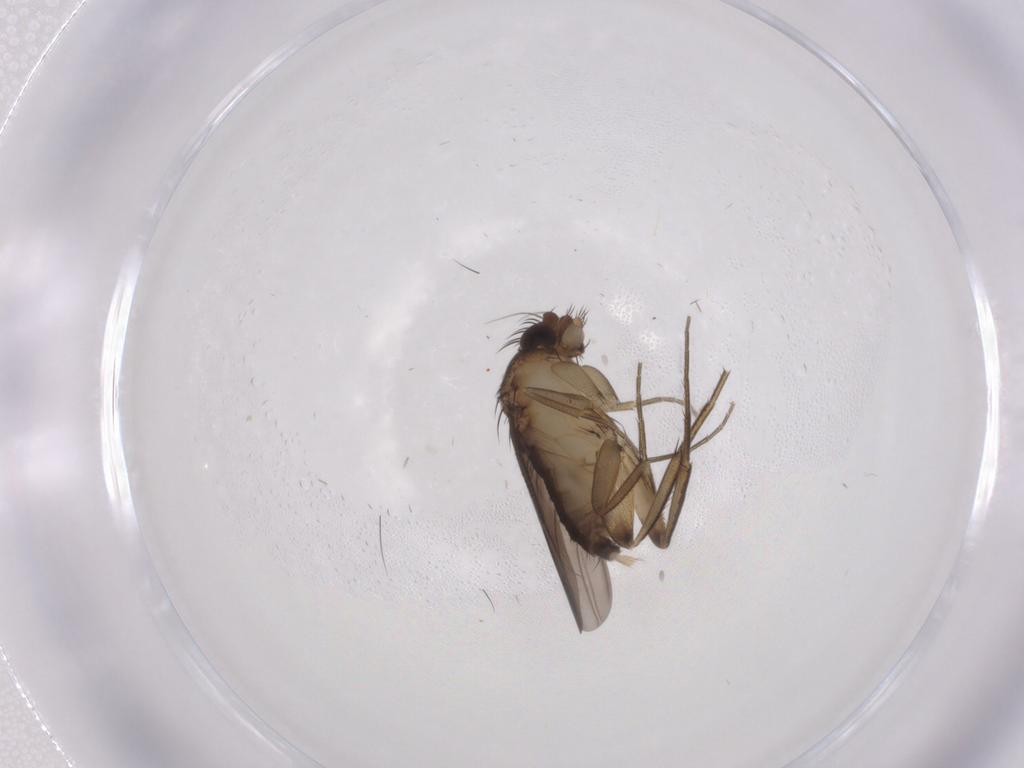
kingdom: Animalia
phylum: Arthropoda
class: Insecta
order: Diptera
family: Phoridae
